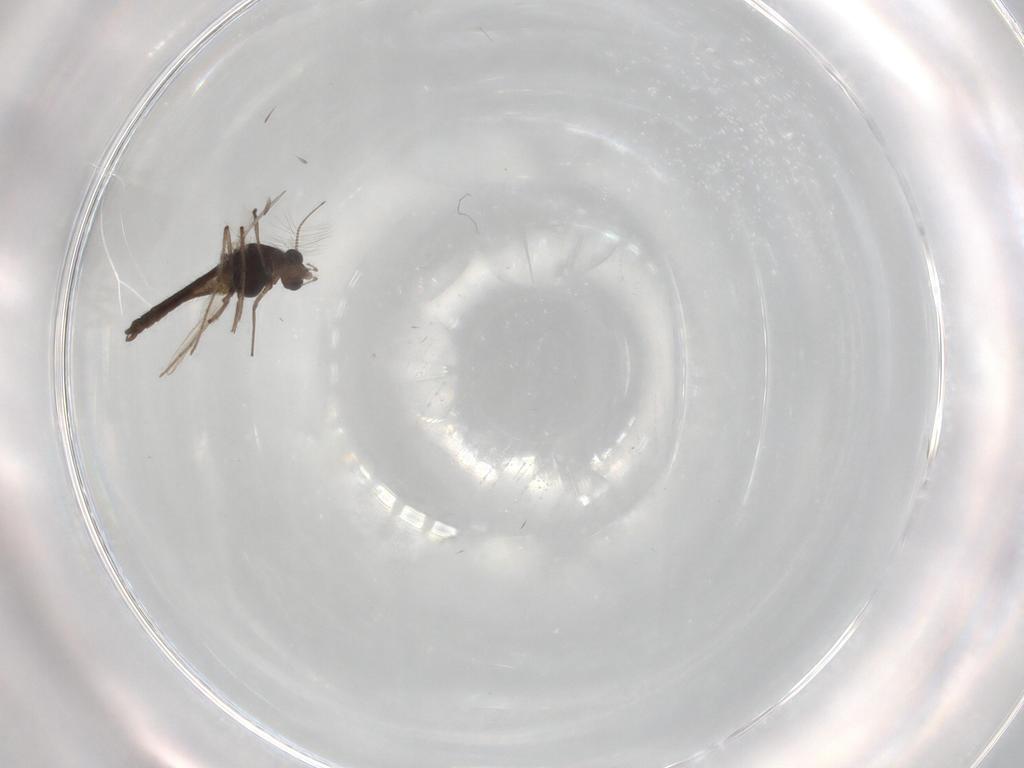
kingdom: Animalia
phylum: Arthropoda
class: Insecta
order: Diptera
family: Chironomidae
